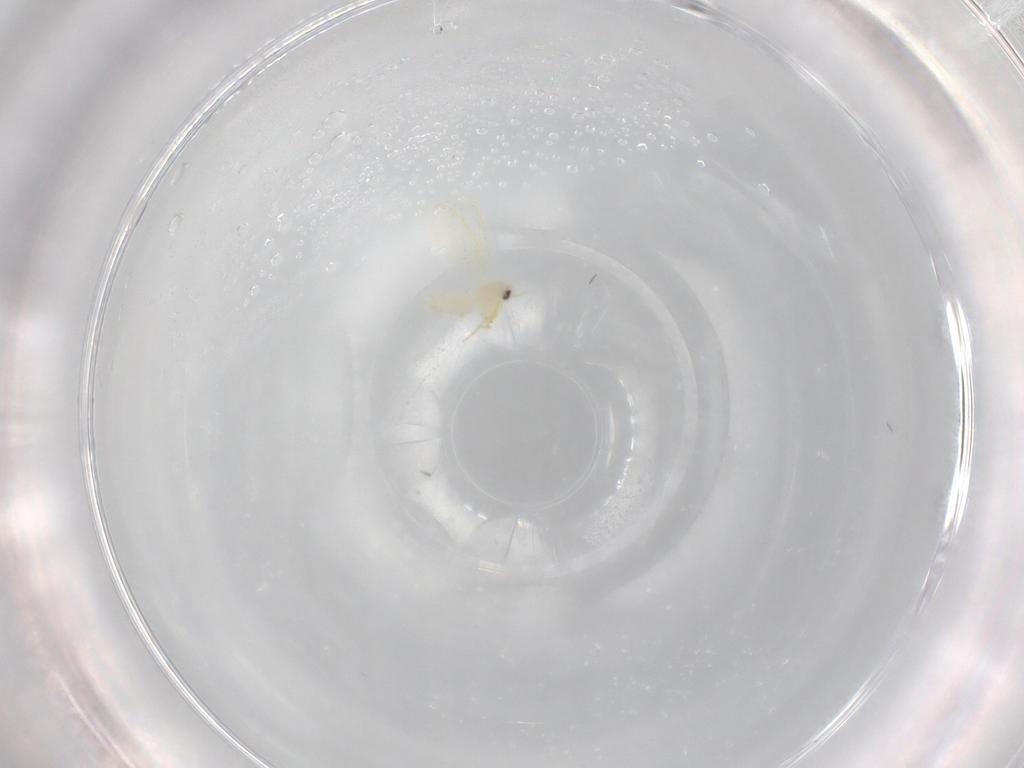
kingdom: Animalia
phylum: Arthropoda
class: Insecta
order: Hemiptera
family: Aleyrodidae
